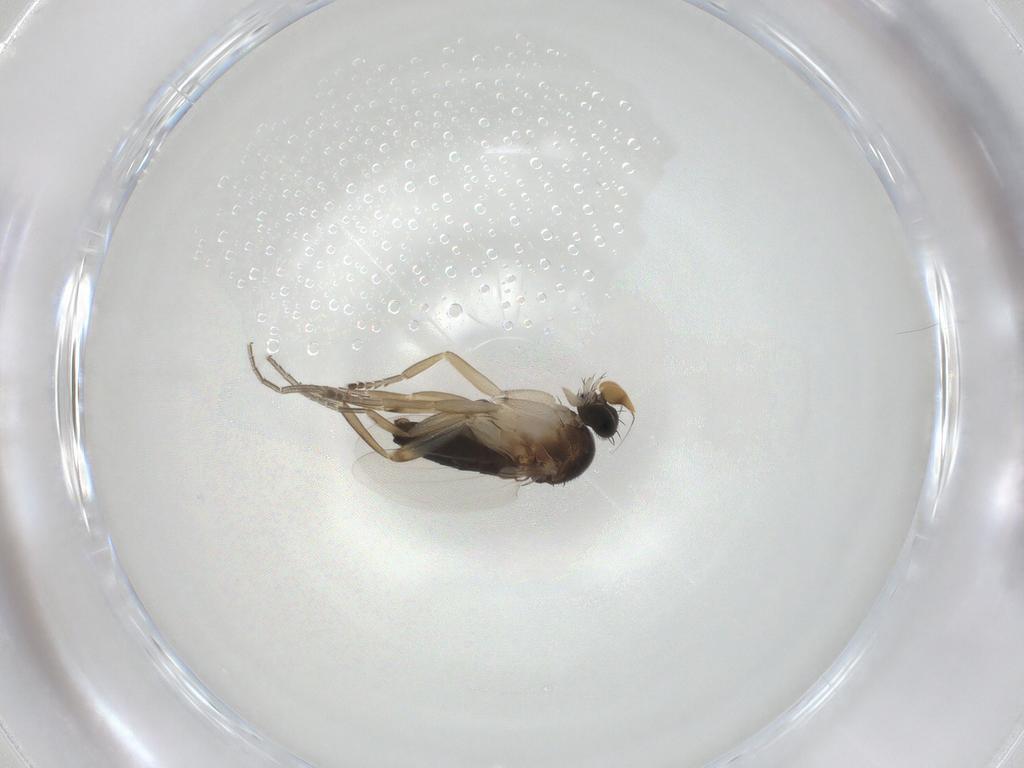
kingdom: Animalia
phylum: Arthropoda
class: Insecta
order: Diptera
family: Phoridae
